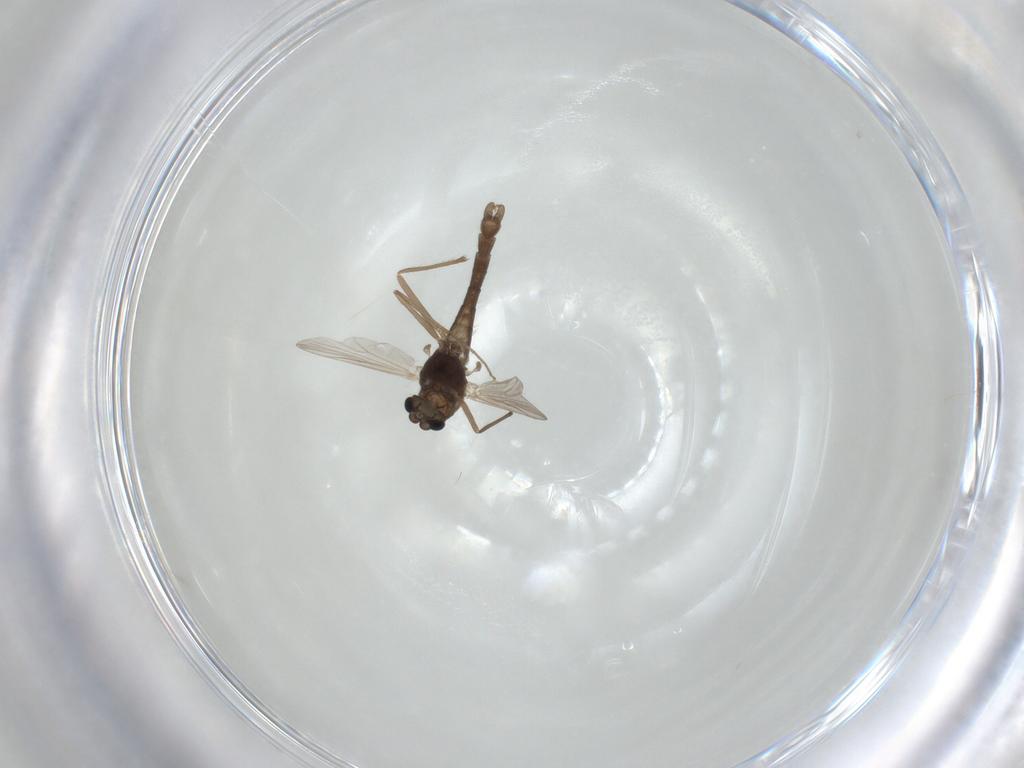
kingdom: Animalia
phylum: Arthropoda
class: Insecta
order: Diptera
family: Chironomidae
